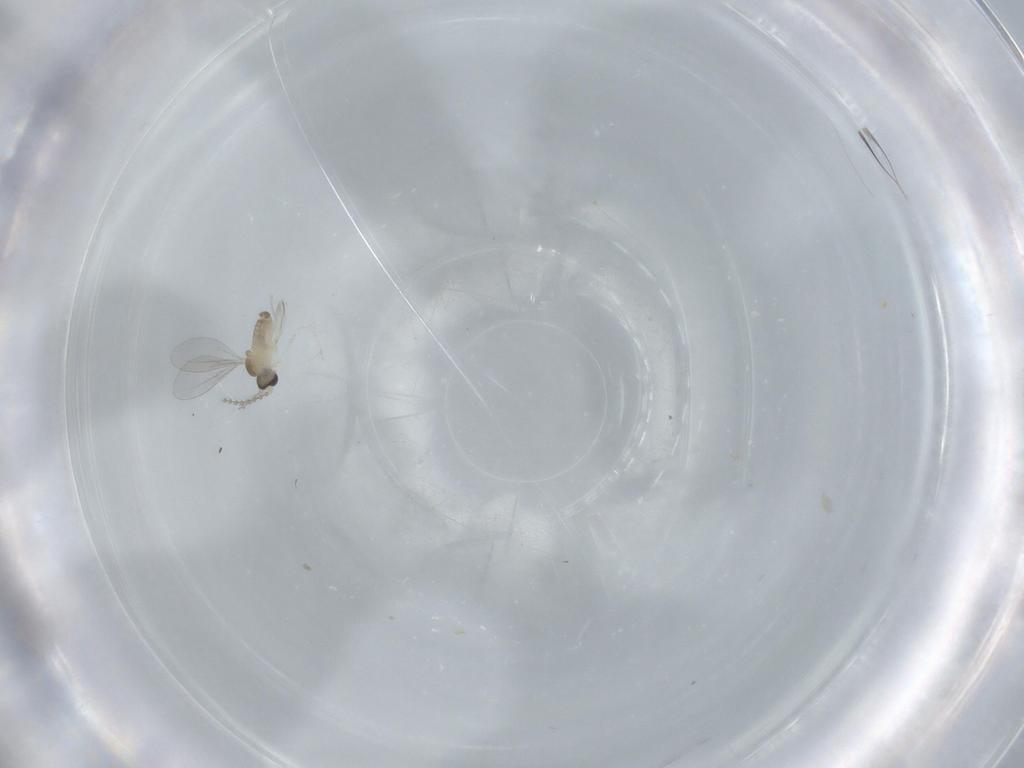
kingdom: Animalia
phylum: Arthropoda
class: Insecta
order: Diptera
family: Cecidomyiidae
